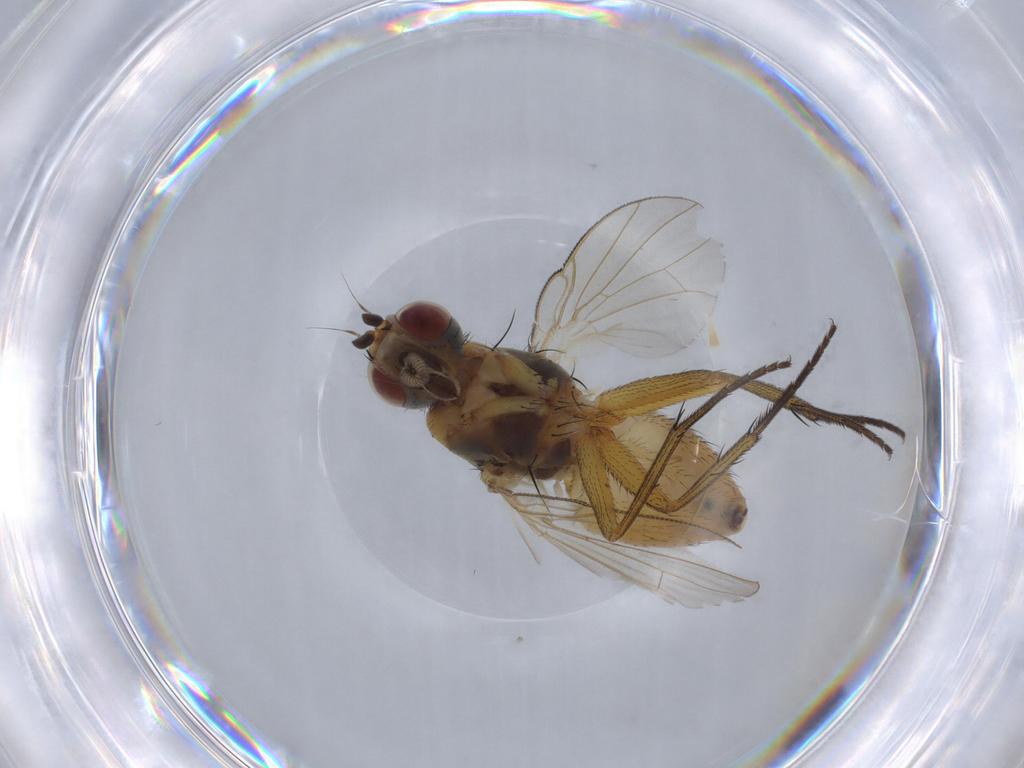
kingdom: Animalia
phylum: Arthropoda
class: Insecta
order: Diptera
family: Muscidae
